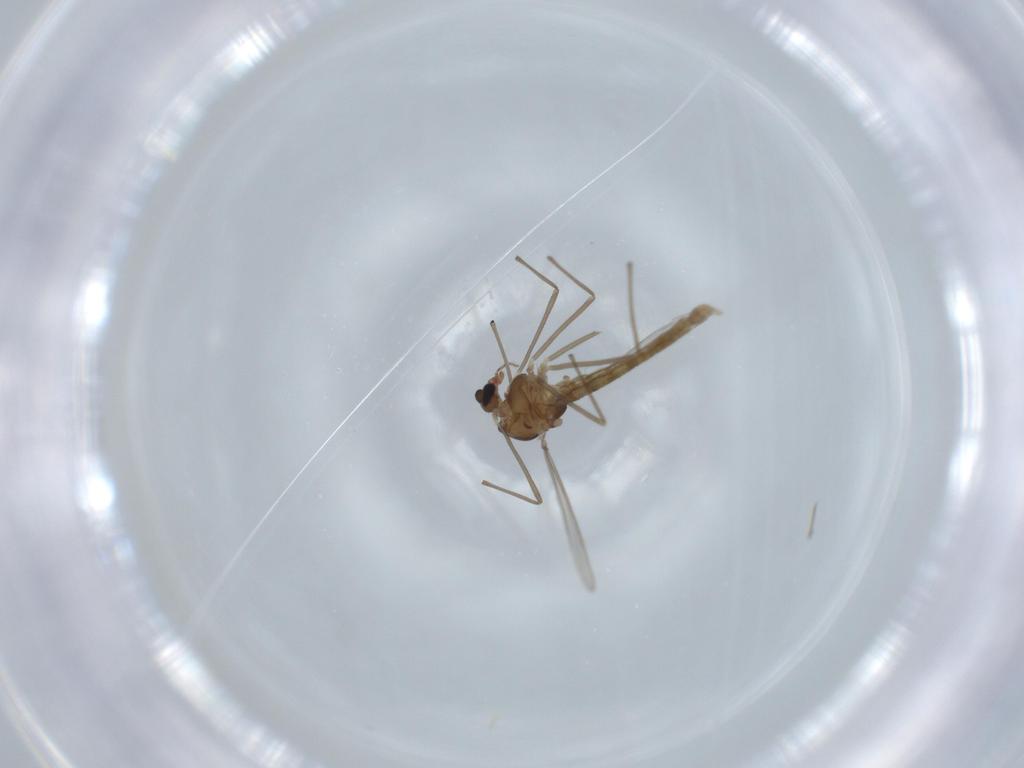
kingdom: Animalia
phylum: Arthropoda
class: Insecta
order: Diptera
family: Chironomidae
